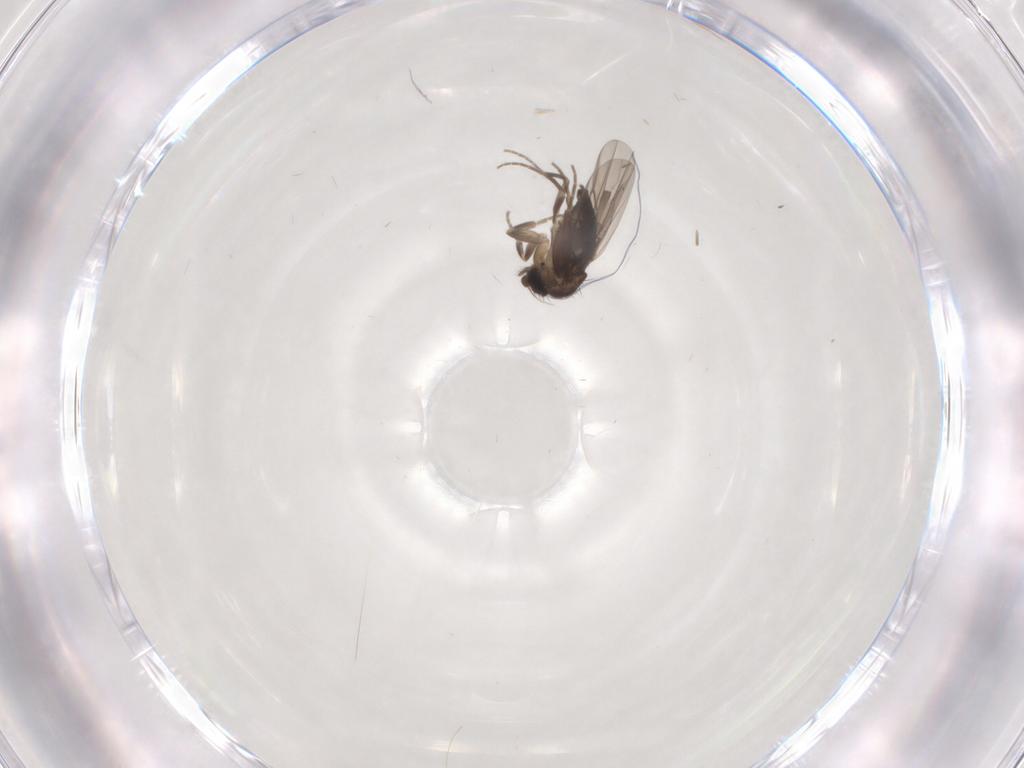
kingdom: Animalia
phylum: Arthropoda
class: Insecta
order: Diptera
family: Phoridae
